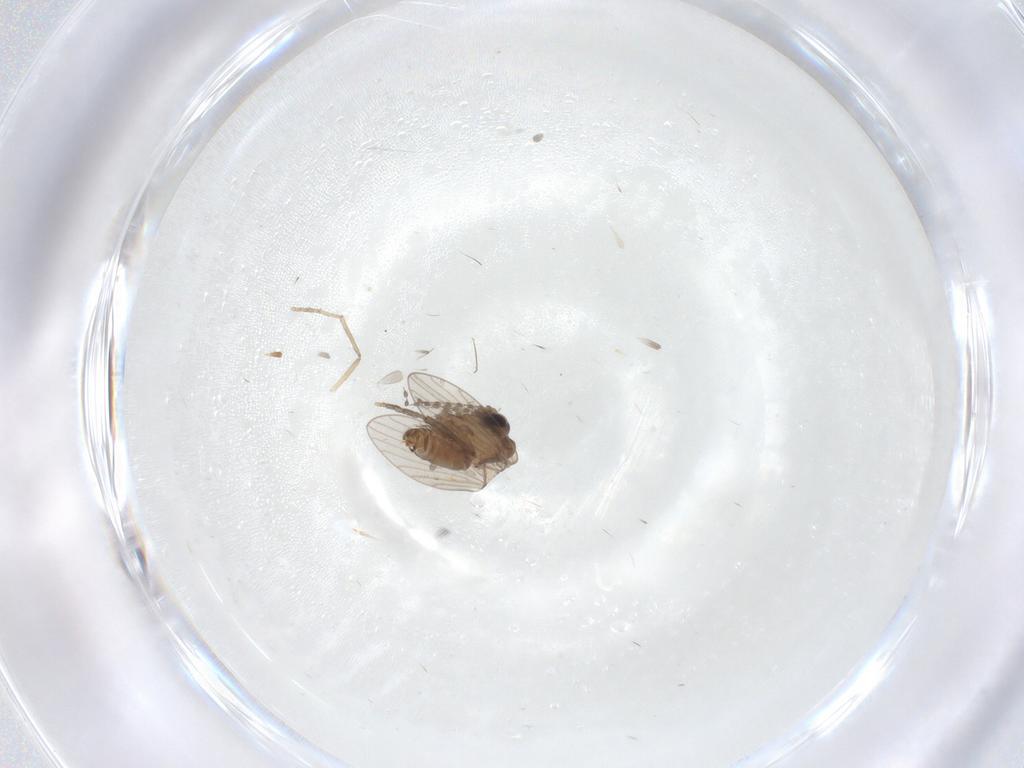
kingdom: Animalia
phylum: Arthropoda
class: Insecta
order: Diptera
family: Psychodidae
